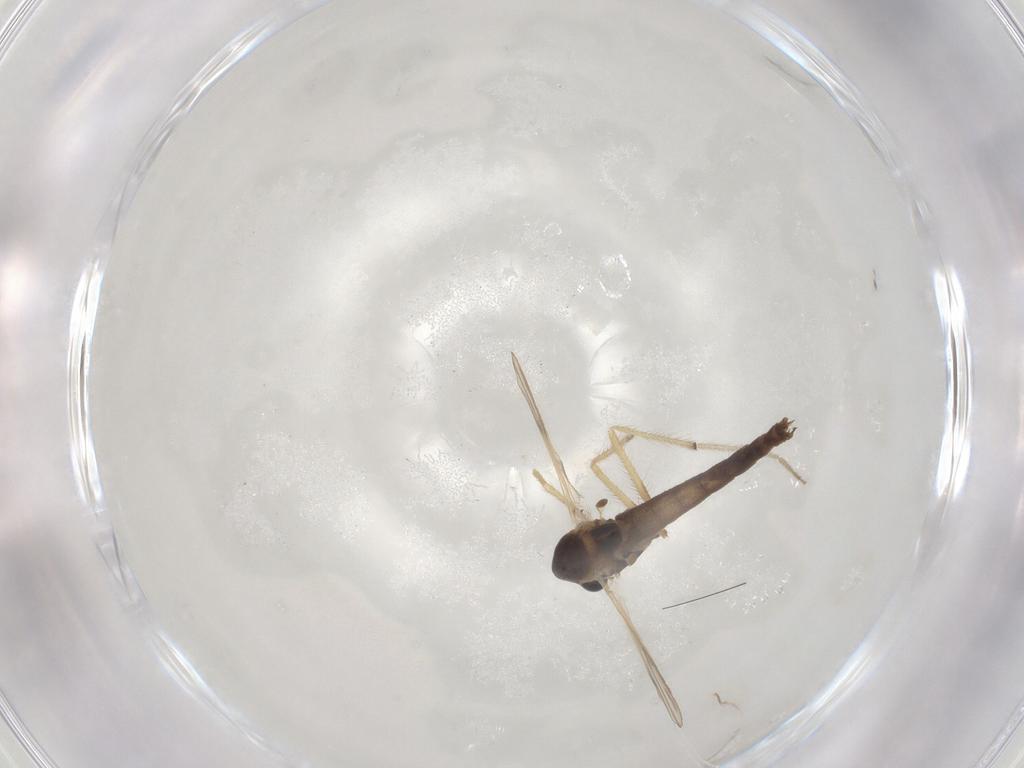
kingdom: Animalia
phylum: Arthropoda
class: Insecta
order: Diptera
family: Chironomidae
